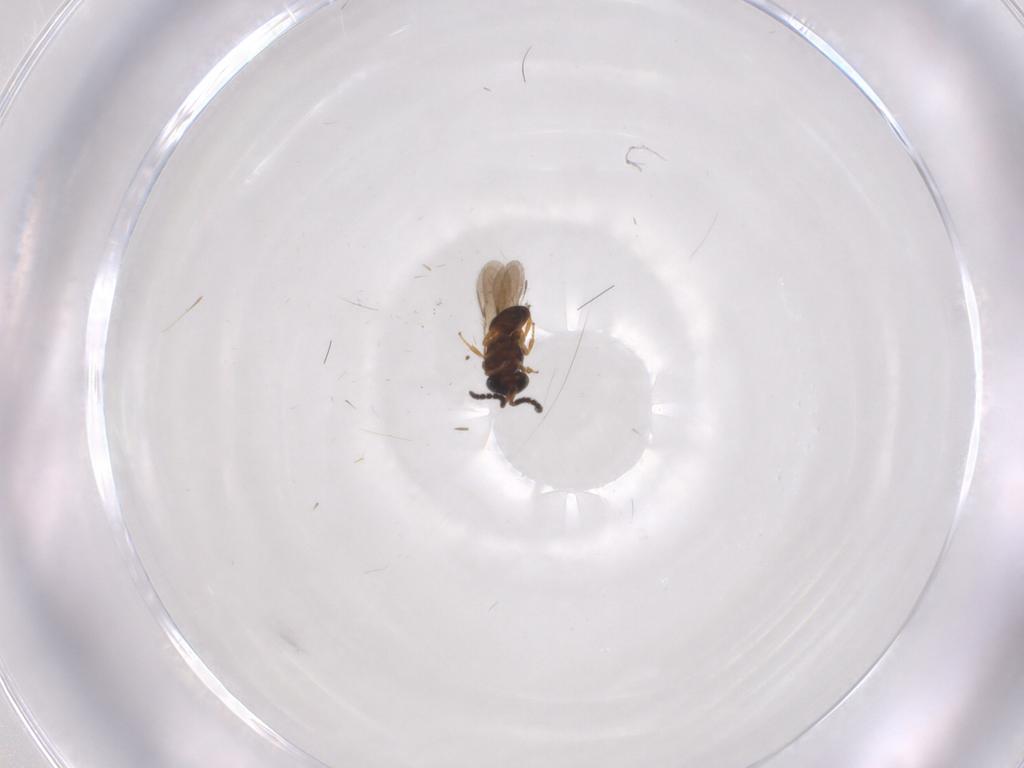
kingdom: Animalia
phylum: Arthropoda
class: Insecta
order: Hymenoptera
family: Scelionidae
